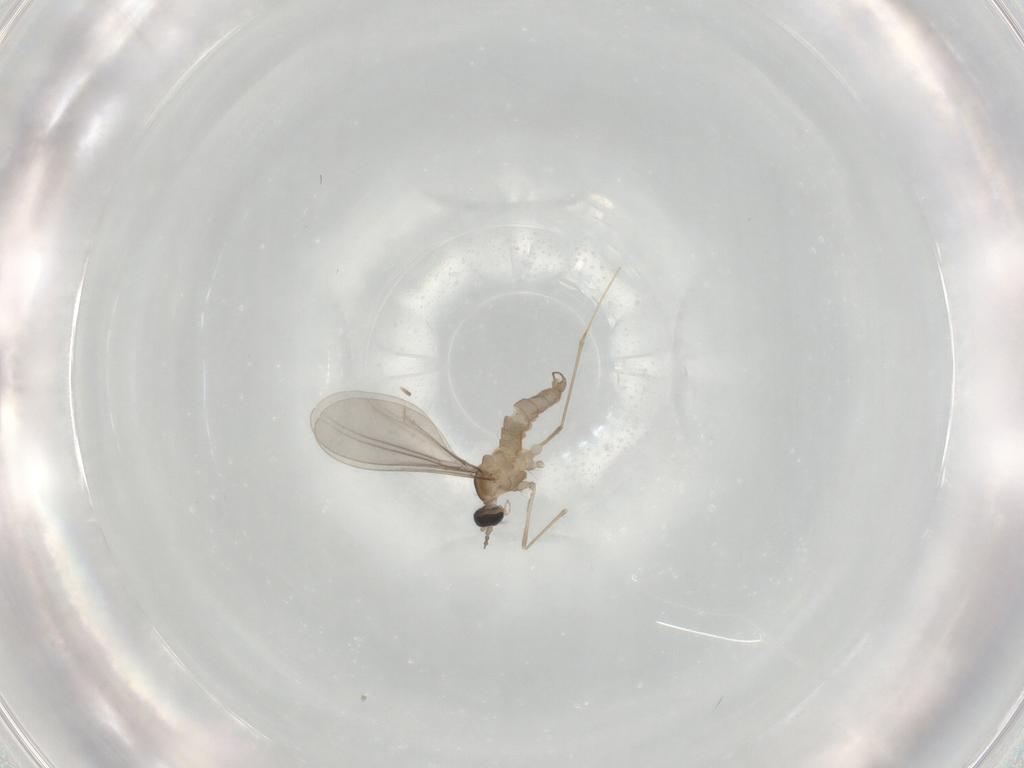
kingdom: Animalia
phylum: Arthropoda
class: Insecta
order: Diptera
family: Cecidomyiidae
